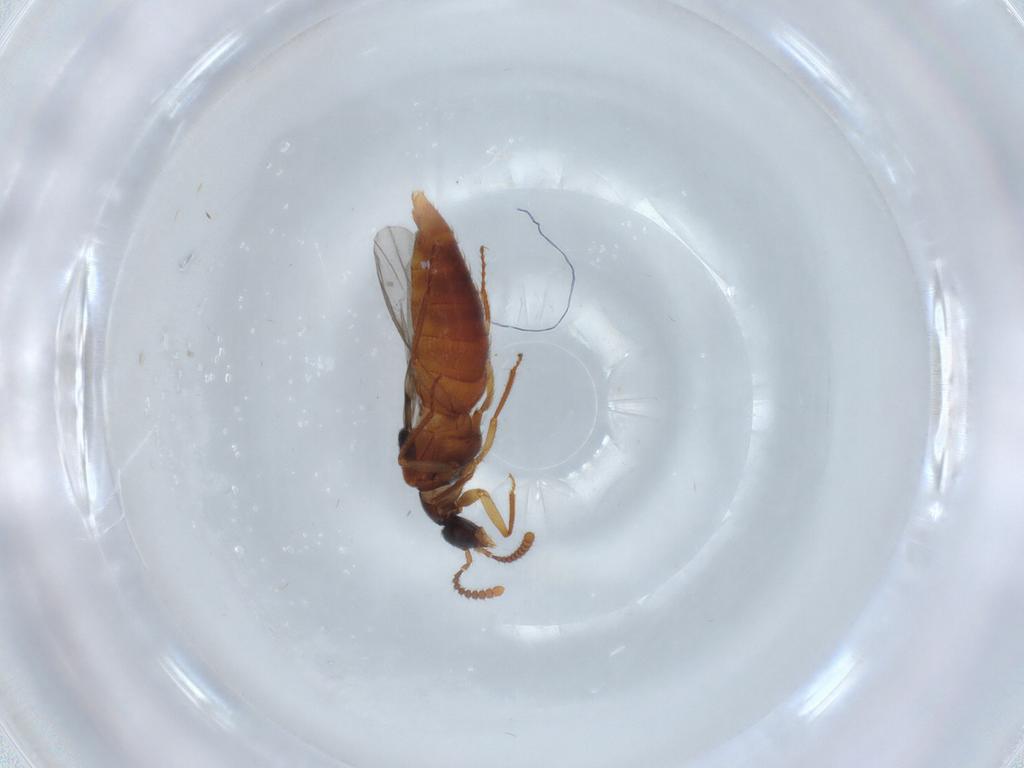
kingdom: Animalia
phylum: Arthropoda
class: Insecta
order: Coleoptera
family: Staphylinidae
